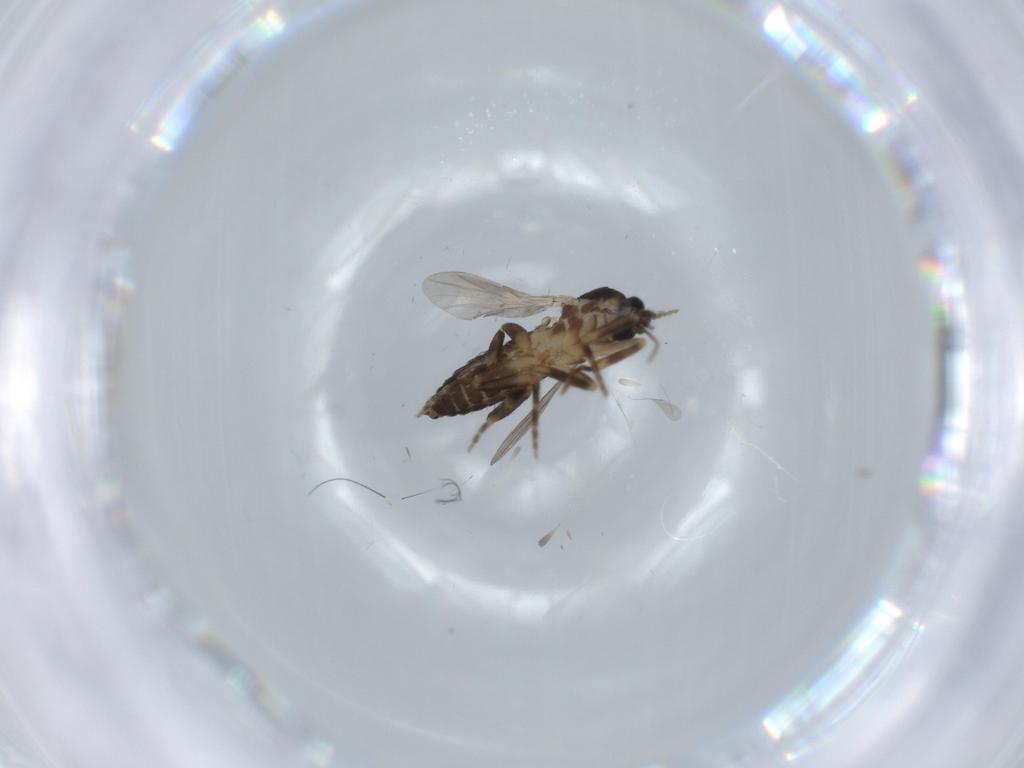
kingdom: Animalia
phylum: Arthropoda
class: Insecta
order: Diptera
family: Ceratopogonidae
